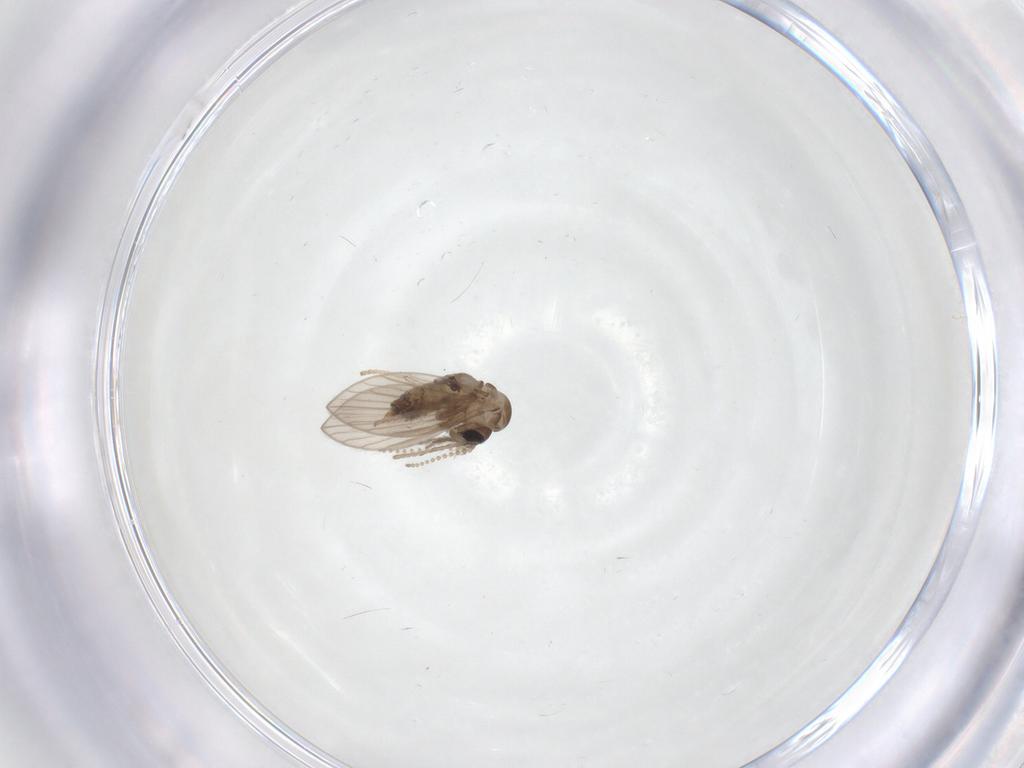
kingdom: Animalia
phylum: Arthropoda
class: Insecta
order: Diptera
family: Psychodidae
